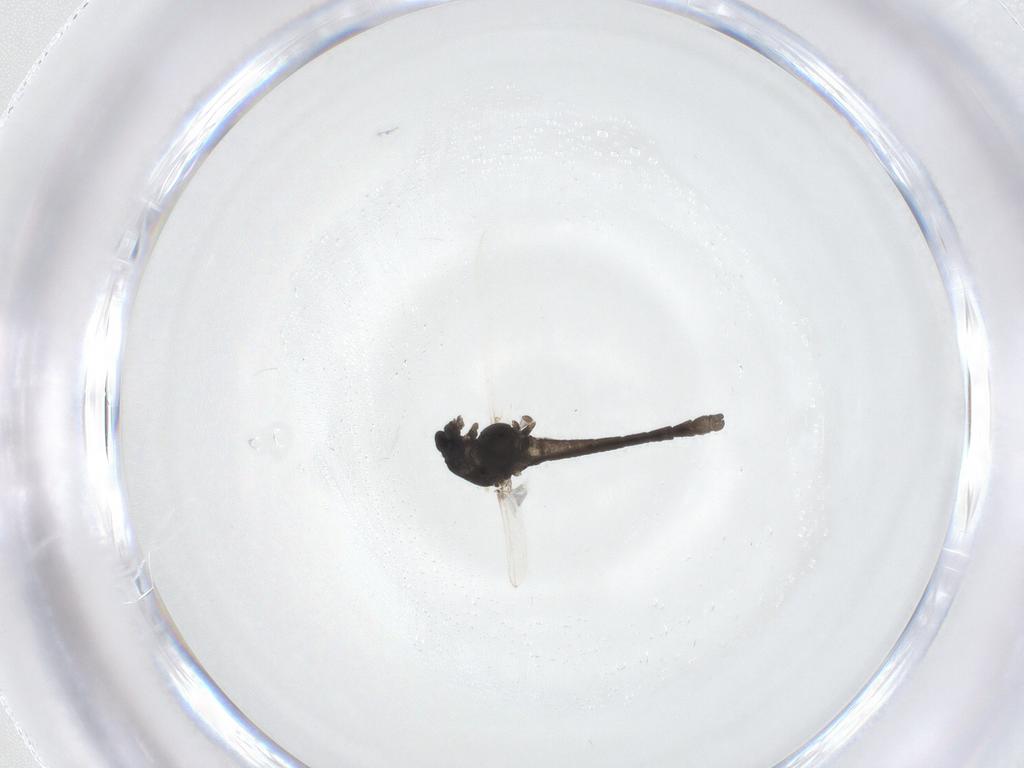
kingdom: Animalia
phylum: Arthropoda
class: Insecta
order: Diptera
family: Chironomidae
